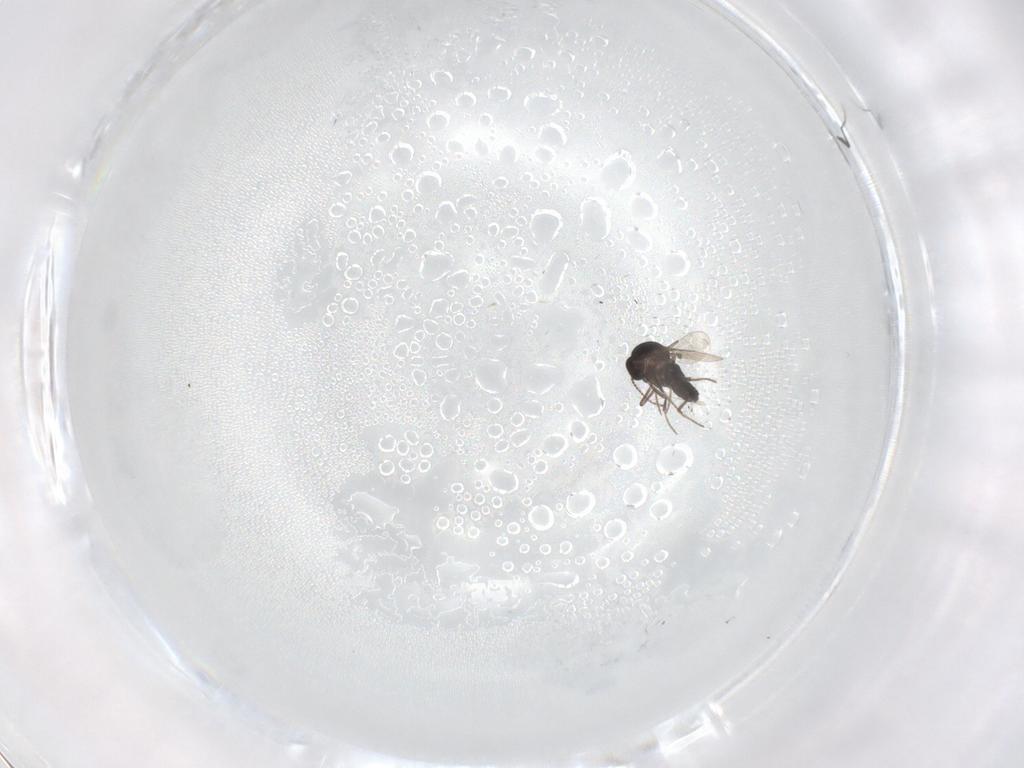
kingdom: Animalia
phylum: Arthropoda
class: Insecta
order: Diptera
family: Ceratopogonidae
